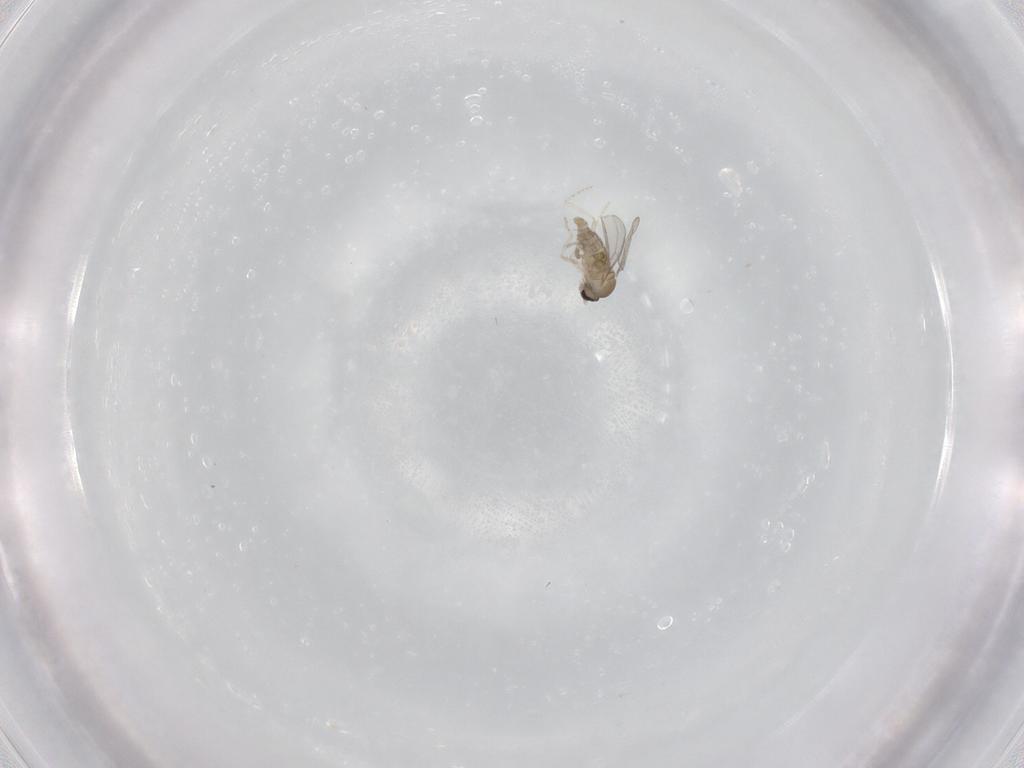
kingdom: Animalia
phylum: Arthropoda
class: Insecta
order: Diptera
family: Cecidomyiidae
